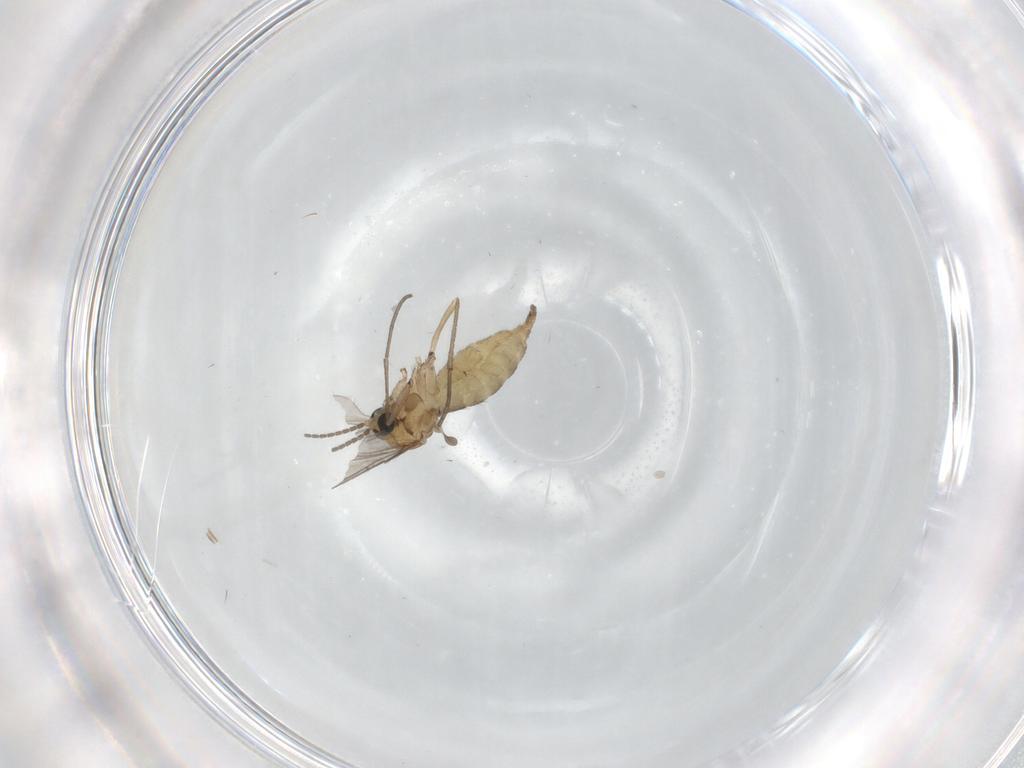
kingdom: Animalia
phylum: Arthropoda
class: Insecta
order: Diptera
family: Sciaridae
